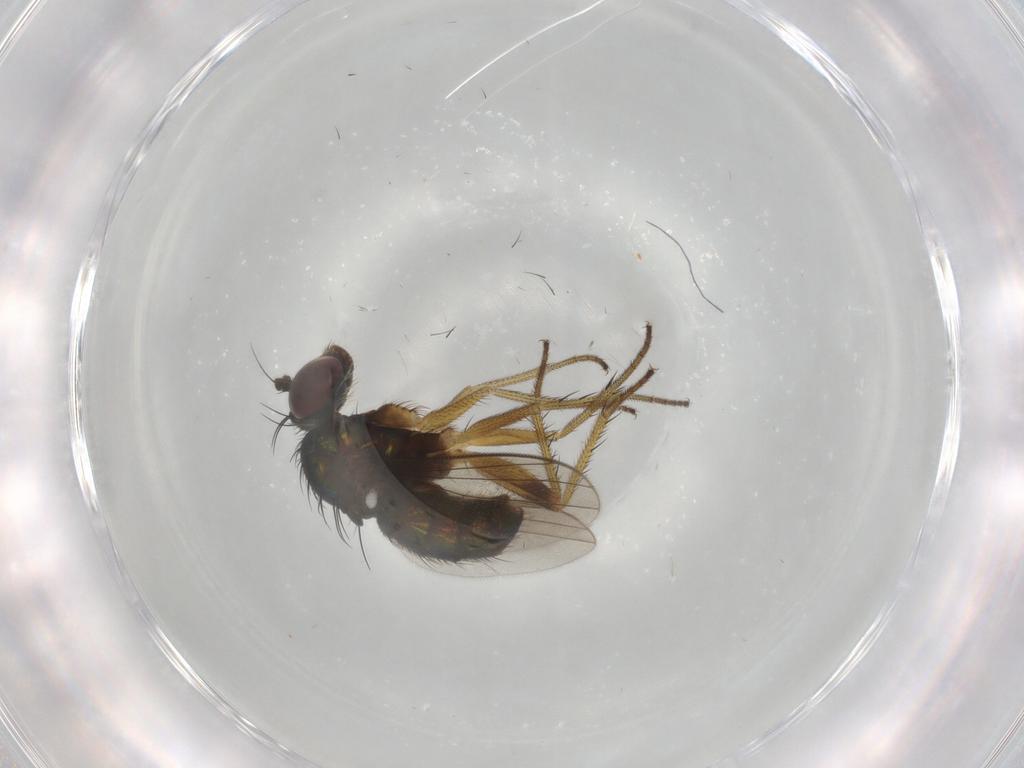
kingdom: Animalia
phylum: Arthropoda
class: Insecta
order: Diptera
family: Dolichopodidae
